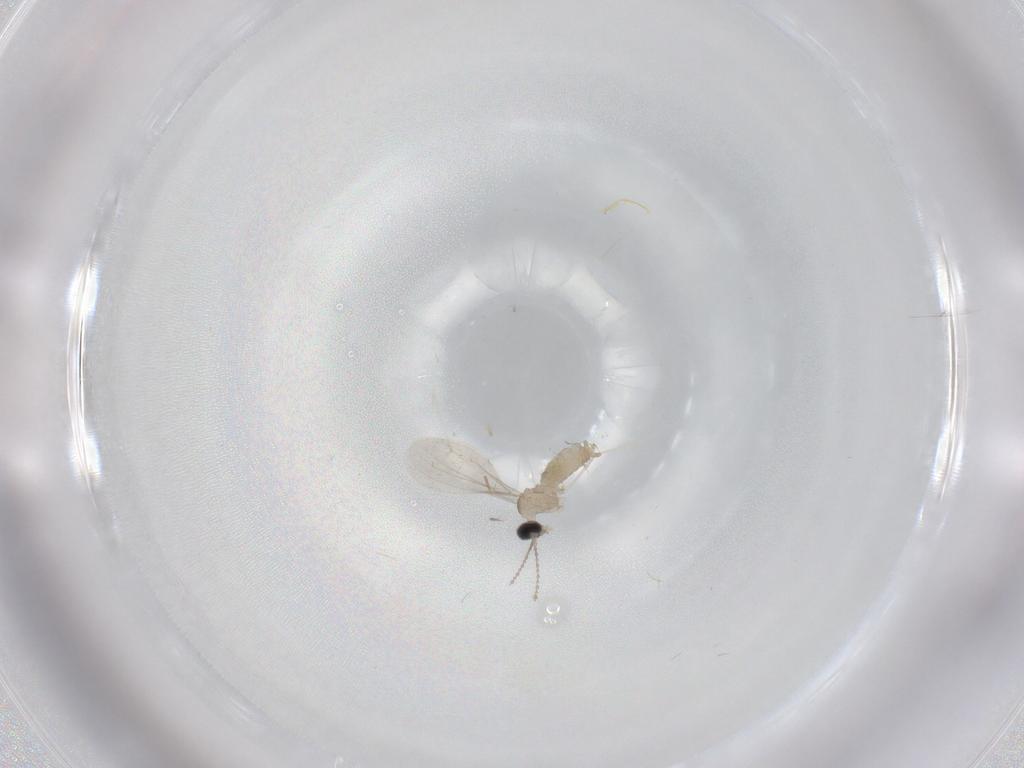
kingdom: Animalia
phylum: Arthropoda
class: Insecta
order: Diptera
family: Cecidomyiidae
